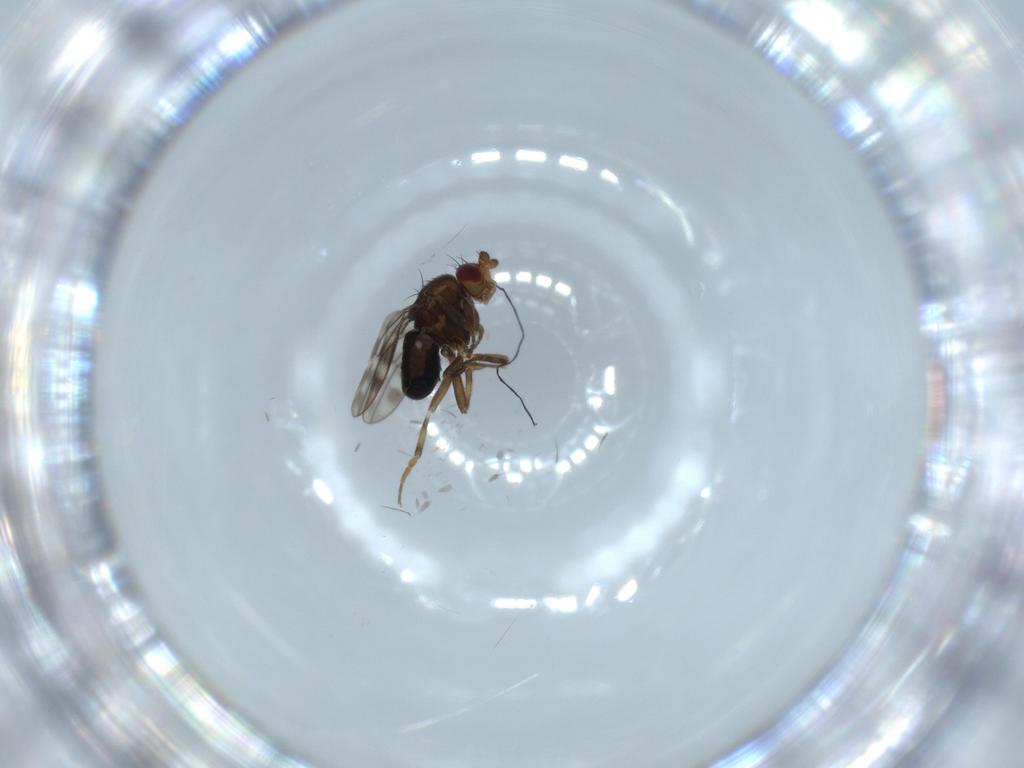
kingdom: Animalia
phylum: Arthropoda
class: Insecta
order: Diptera
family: Sphaeroceridae
